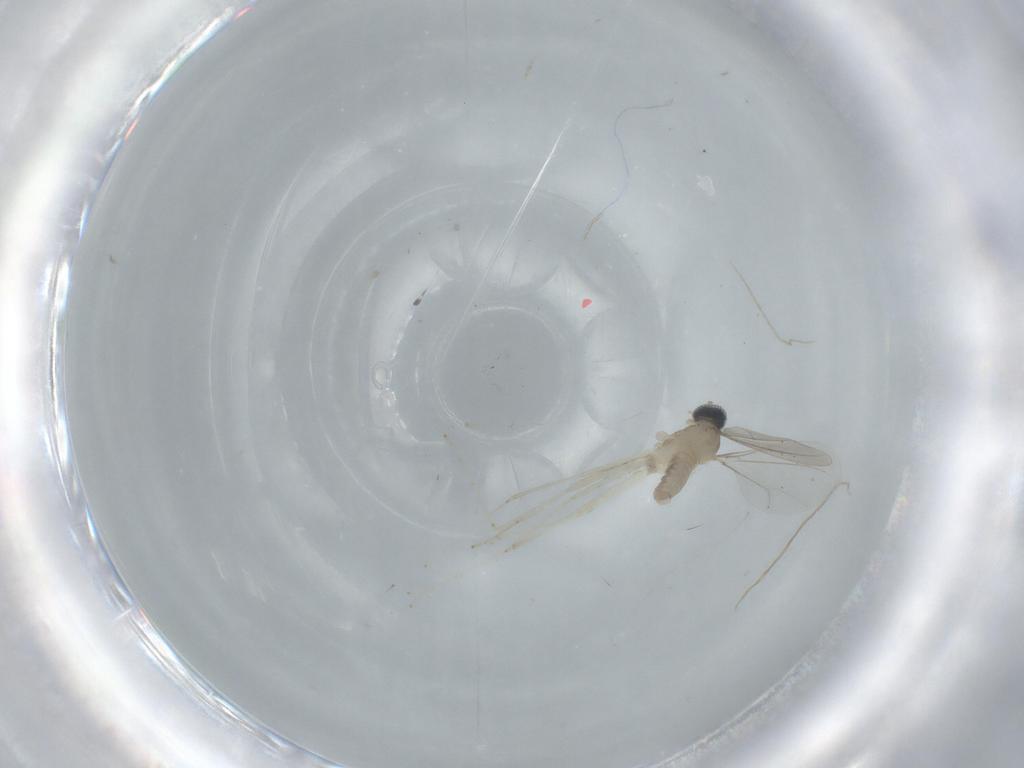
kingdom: Animalia
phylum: Arthropoda
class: Insecta
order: Diptera
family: Cecidomyiidae
